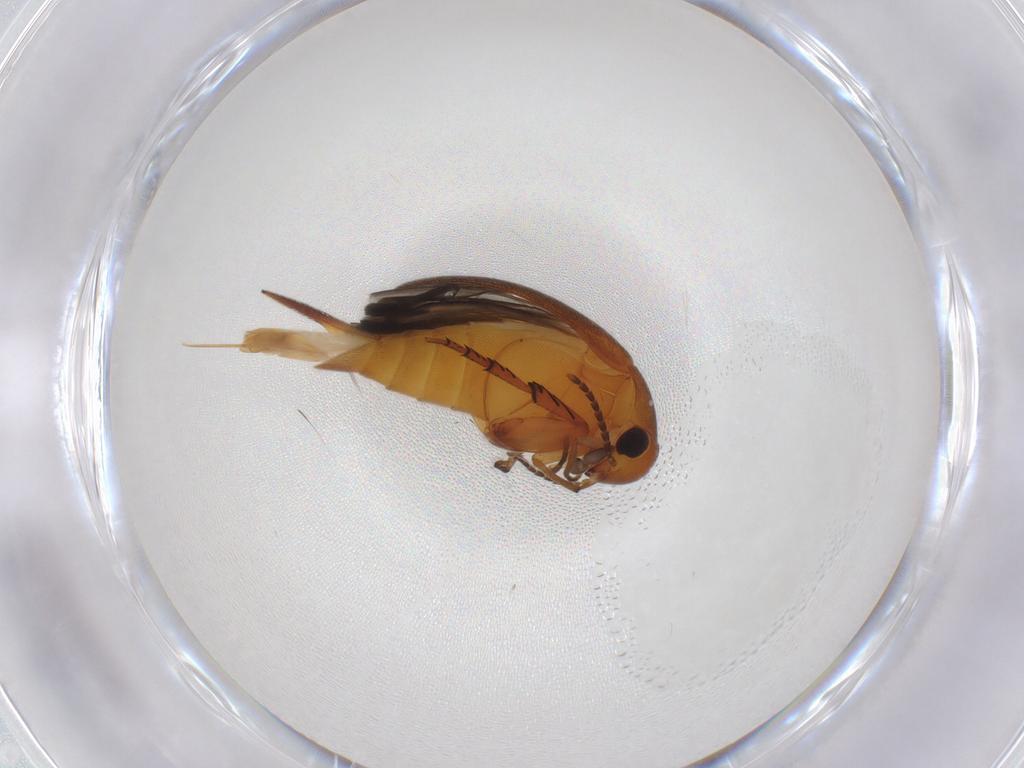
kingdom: Animalia
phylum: Arthropoda
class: Insecta
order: Coleoptera
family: Mordellidae
